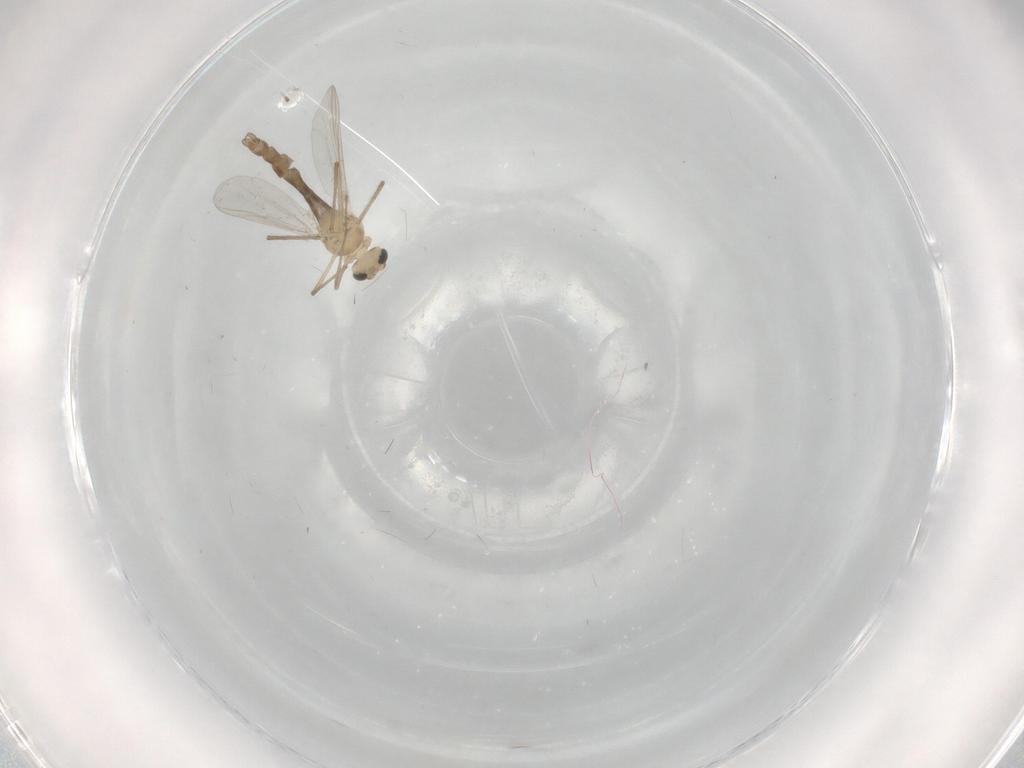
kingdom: Animalia
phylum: Arthropoda
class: Insecta
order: Diptera
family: Chironomidae
